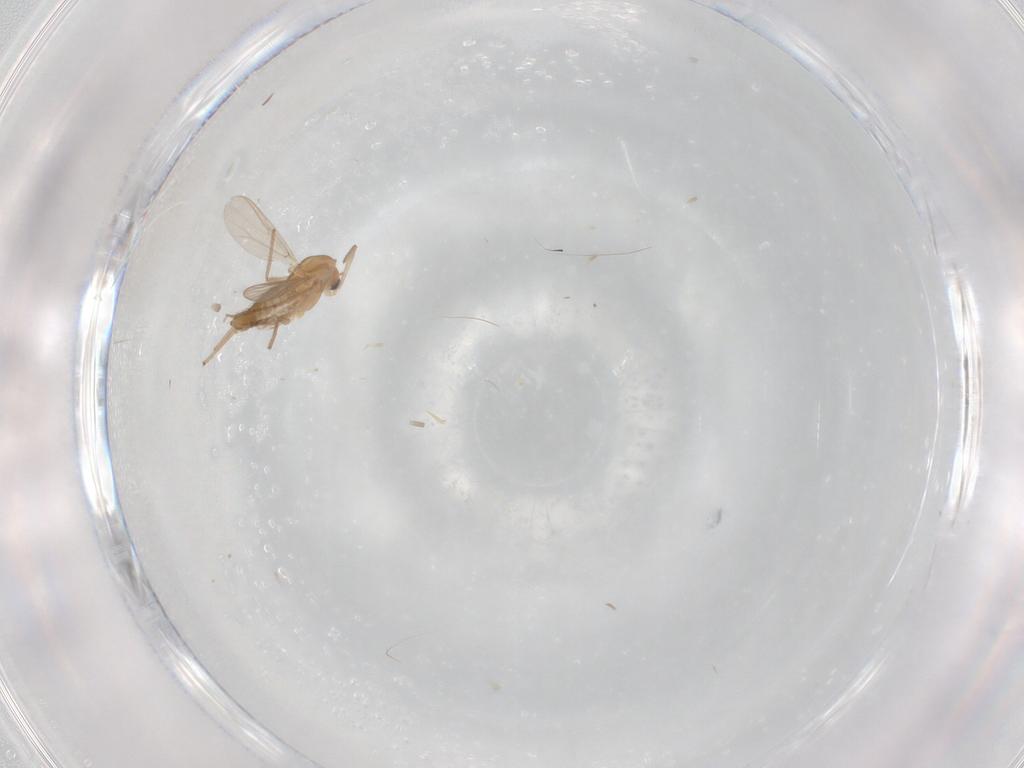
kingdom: Animalia
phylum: Arthropoda
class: Insecta
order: Diptera
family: Chironomidae
